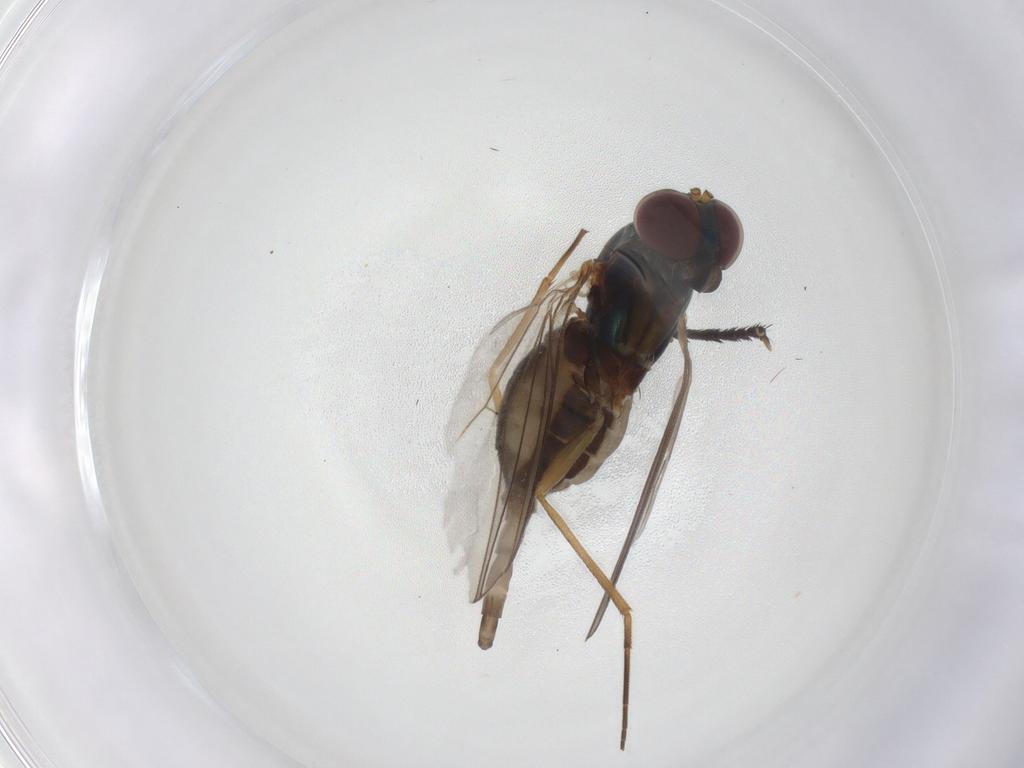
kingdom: Animalia
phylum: Arthropoda
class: Insecta
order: Diptera
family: Dolichopodidae
